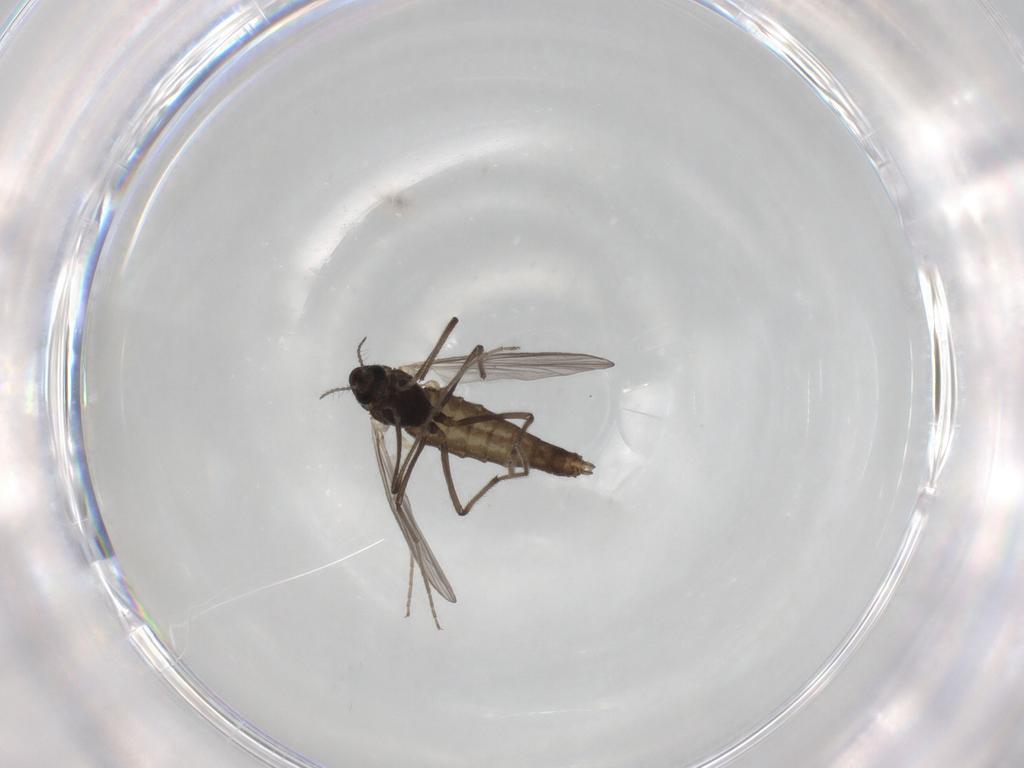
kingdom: Animalia
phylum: Arthropoda
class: Insecta
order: Diptera
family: Chironomidae
